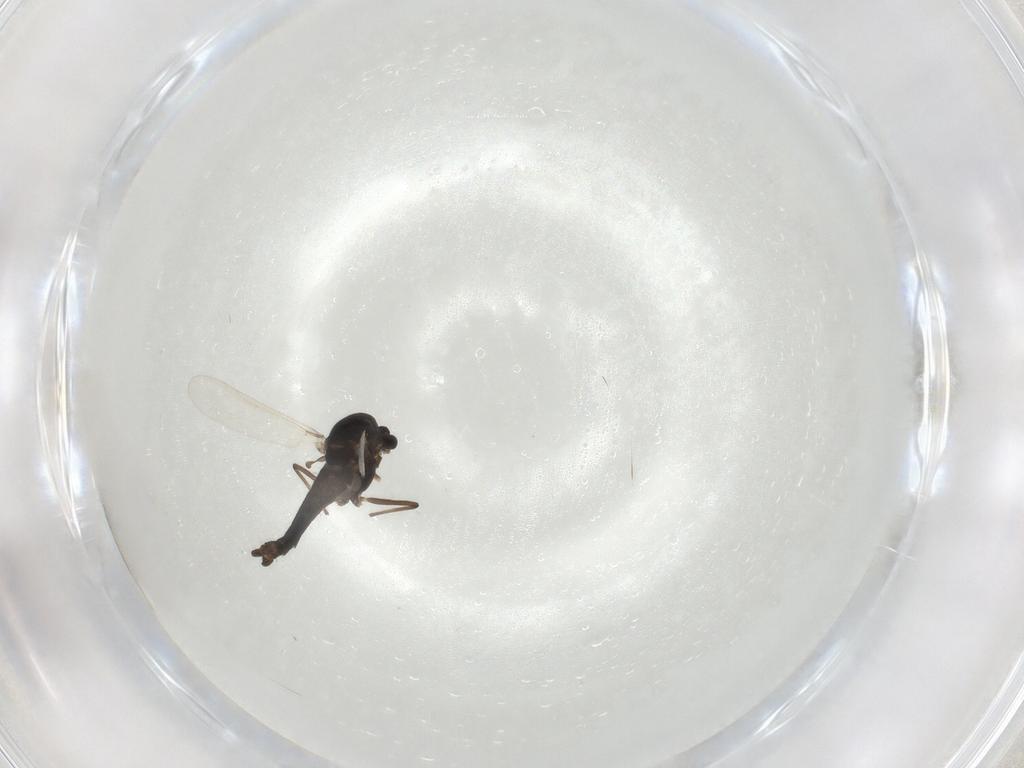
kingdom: Animalia
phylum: Arthropoda
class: Insecta
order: Diptera
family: Chironomidae
